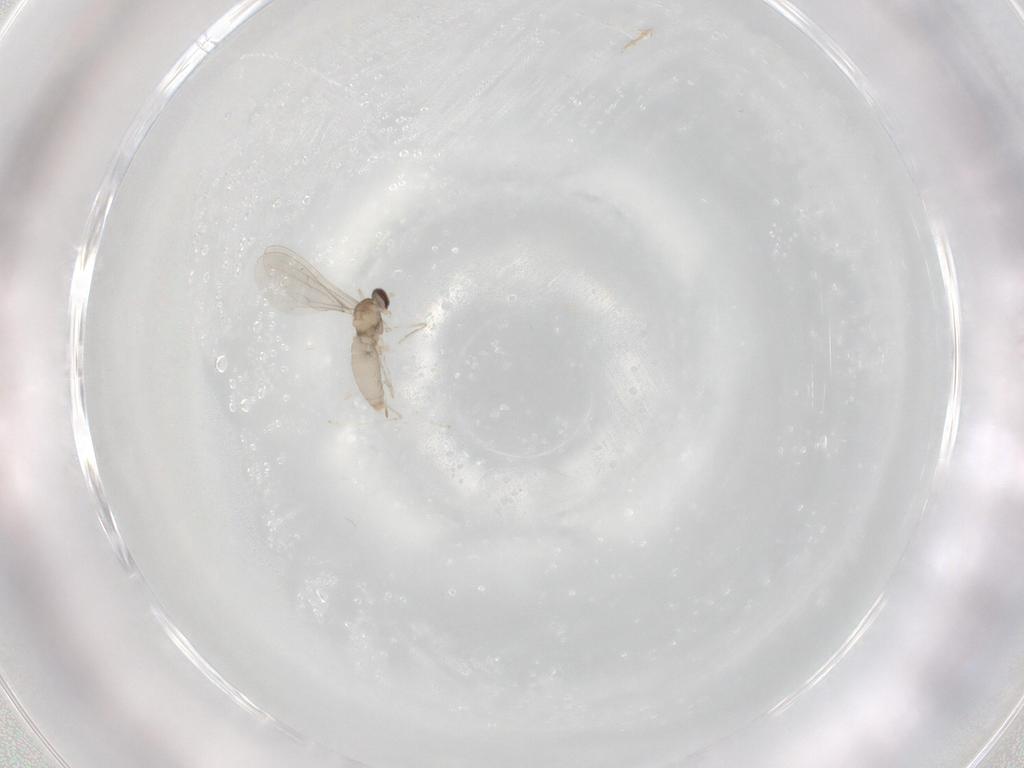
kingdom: Animalia
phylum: Arthropoda
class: Insecta
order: Diptera
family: Cecidomyiidae
